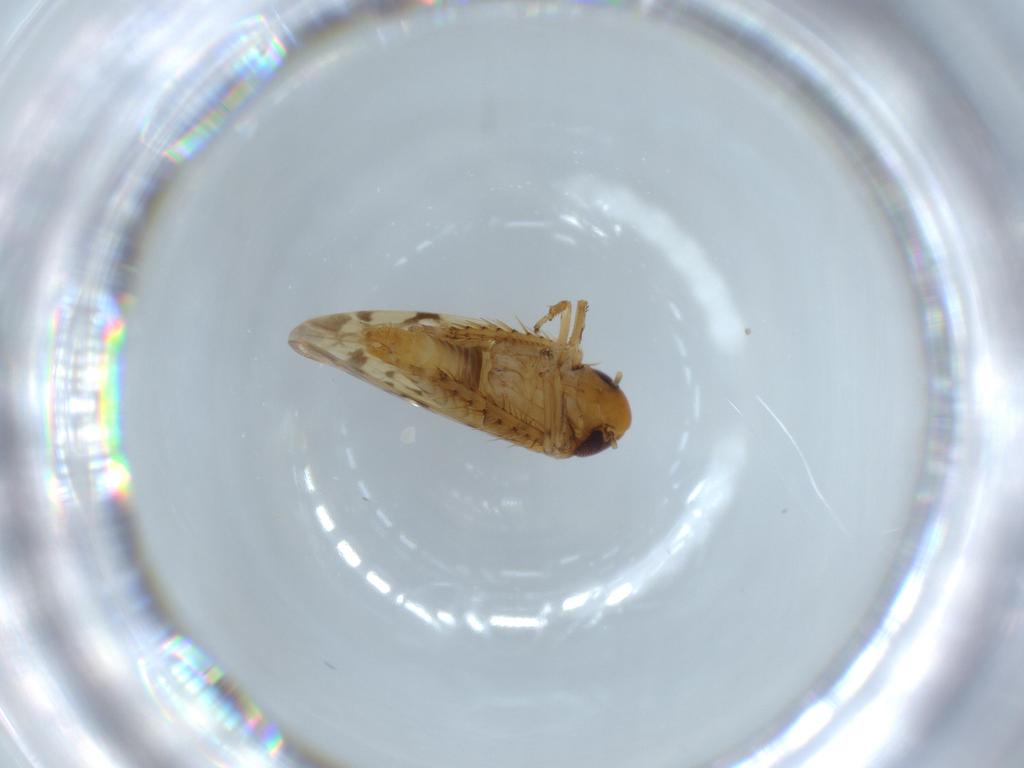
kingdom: Animalia
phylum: Arthropoda
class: Insecta
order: Hemiptera
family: Cicadellidae
